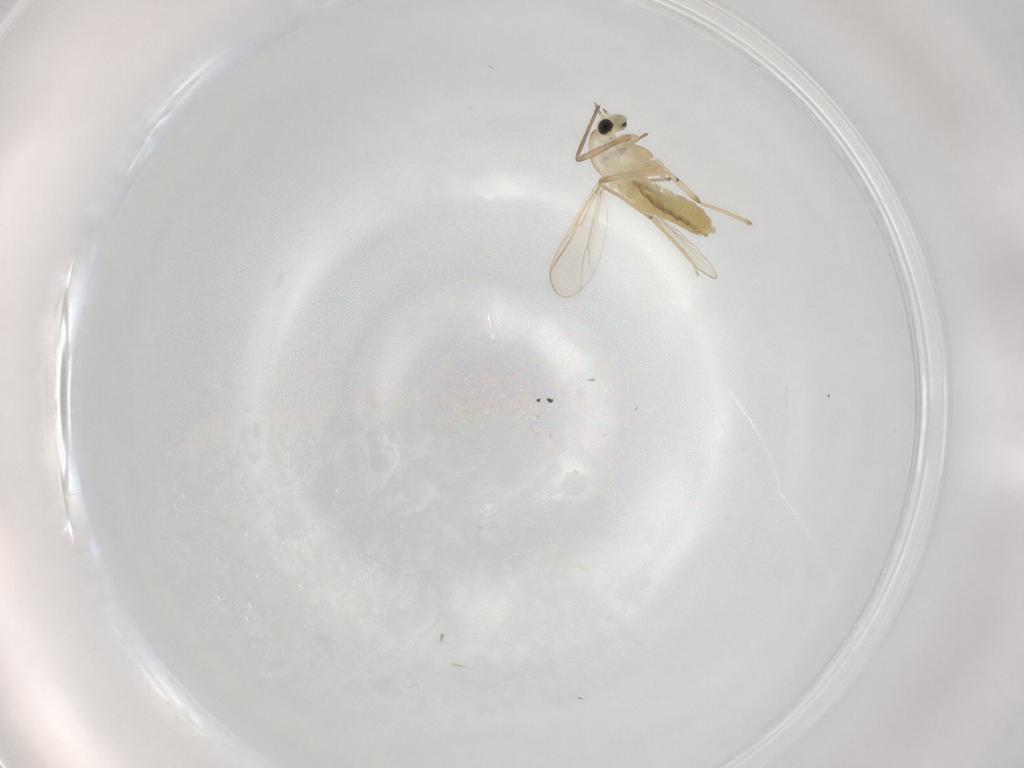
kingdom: Animalia
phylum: Arthropoda
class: Insecta
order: Diptera
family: Chironomidae
